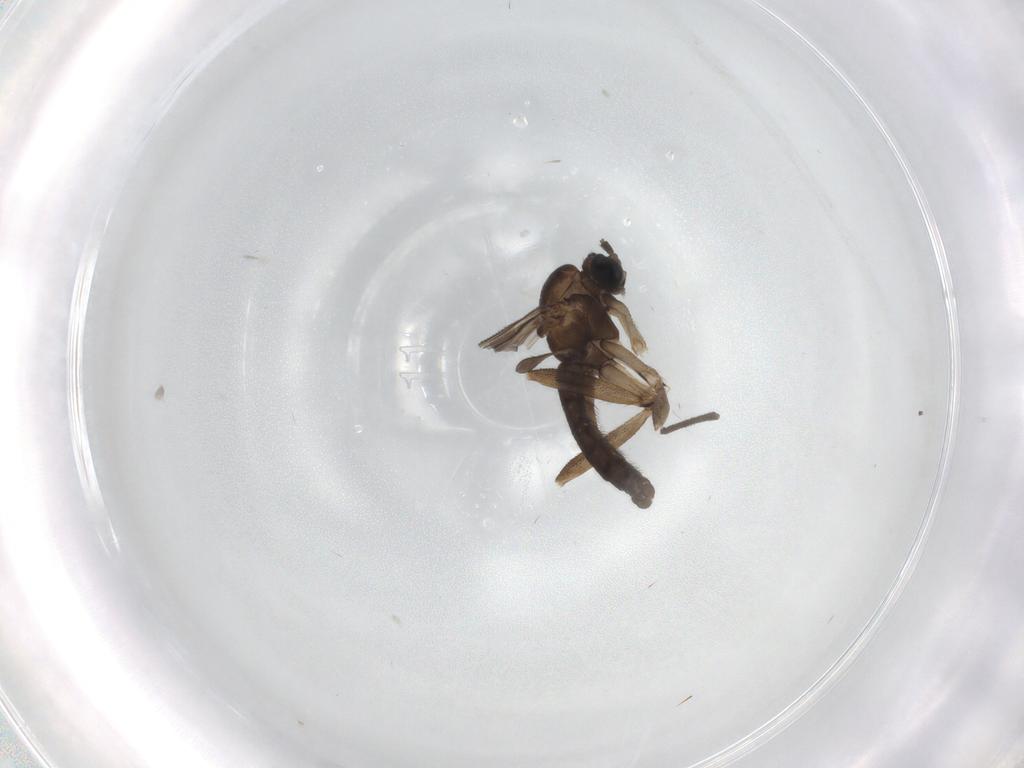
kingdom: Animalia
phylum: Arthropoda
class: Insecta
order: Diptera
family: Sciaridae
